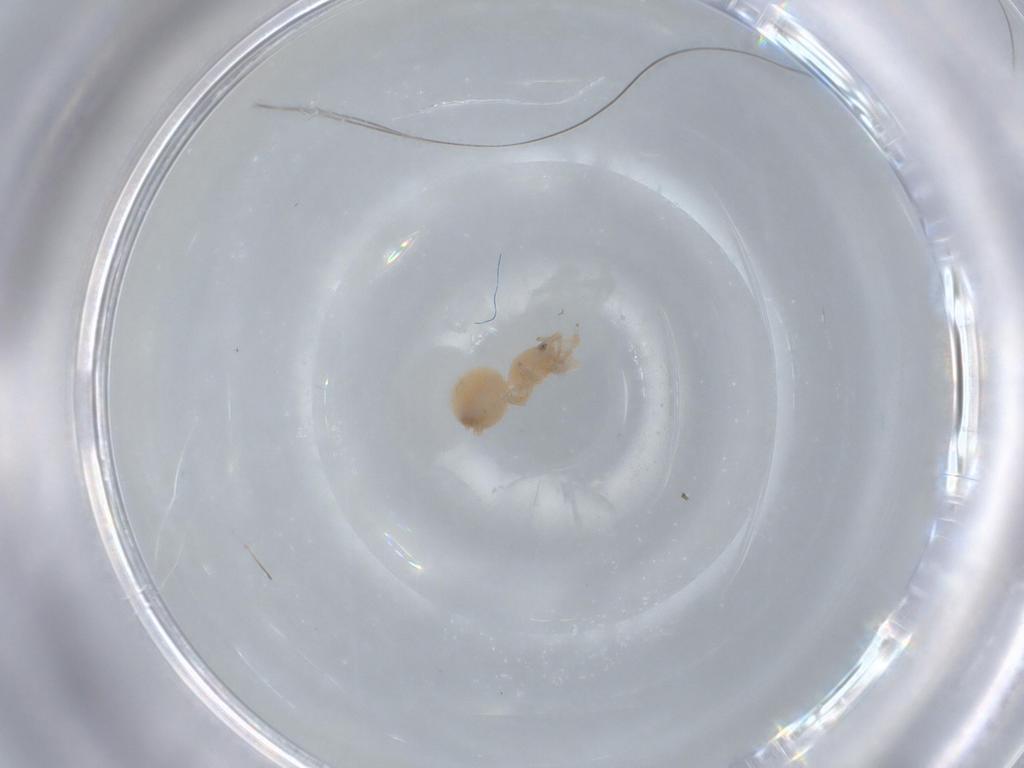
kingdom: Animalia
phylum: Arthropoda
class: Arachnida
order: Araneae
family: Oonopidae
